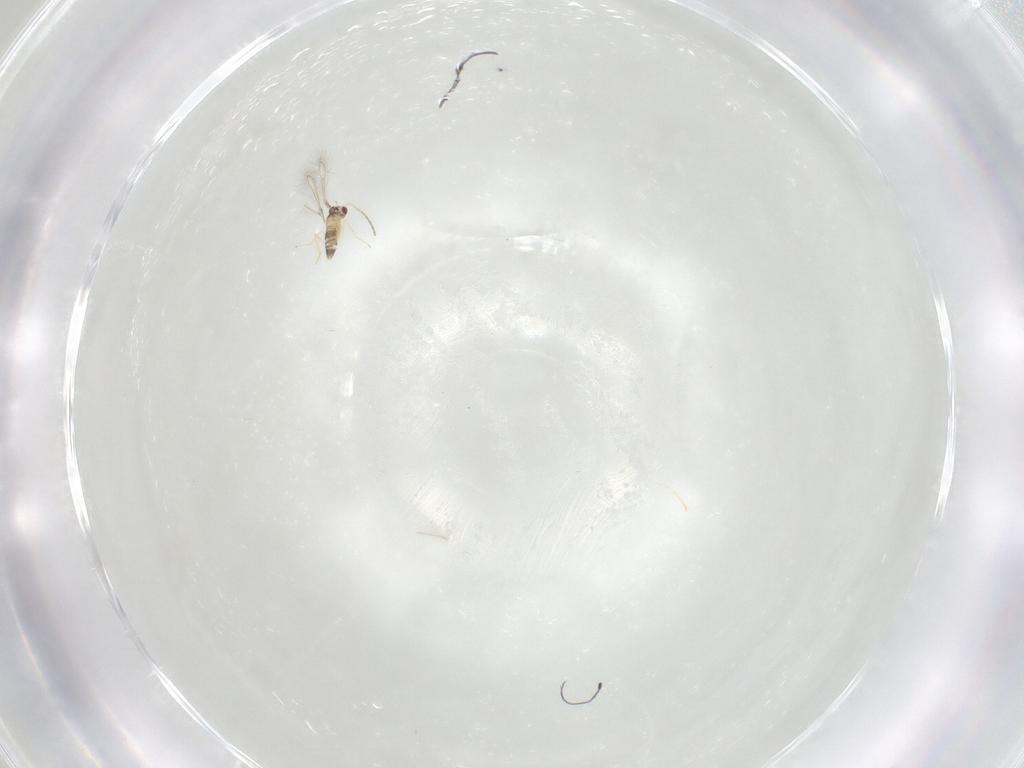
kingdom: Animalia
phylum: Arthropoda
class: Insecta
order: Hymenoptera
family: Mymaridae
